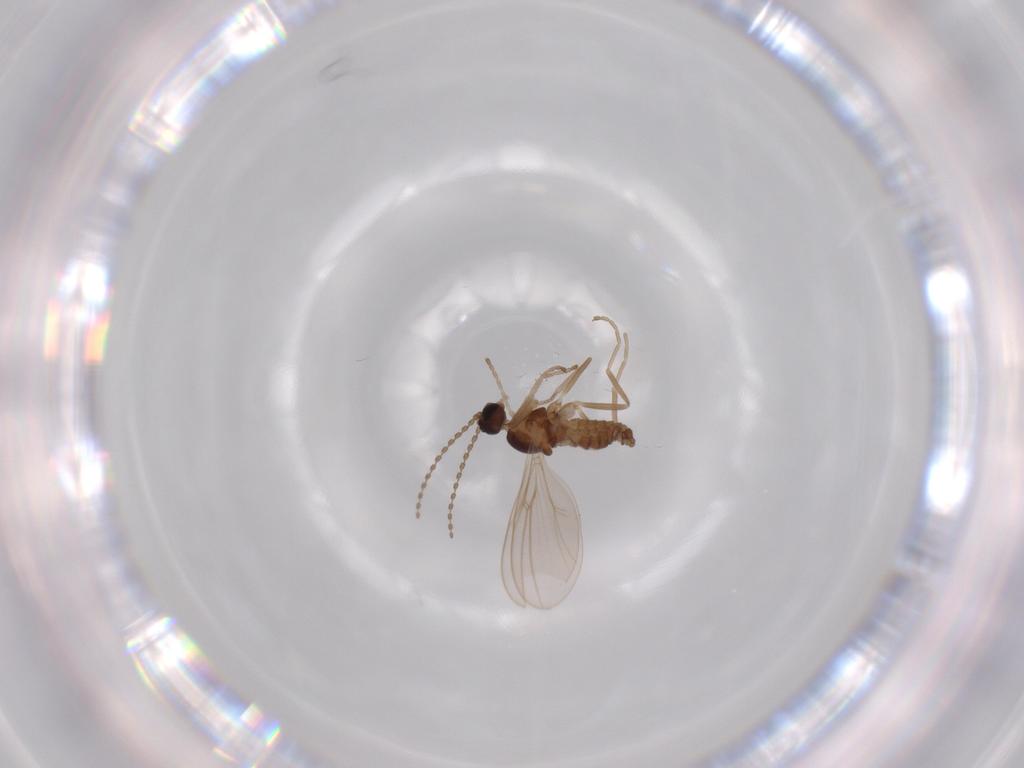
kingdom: Animalia
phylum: Arthropoda
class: Insecta
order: Diptera
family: Cecidomyiidae
